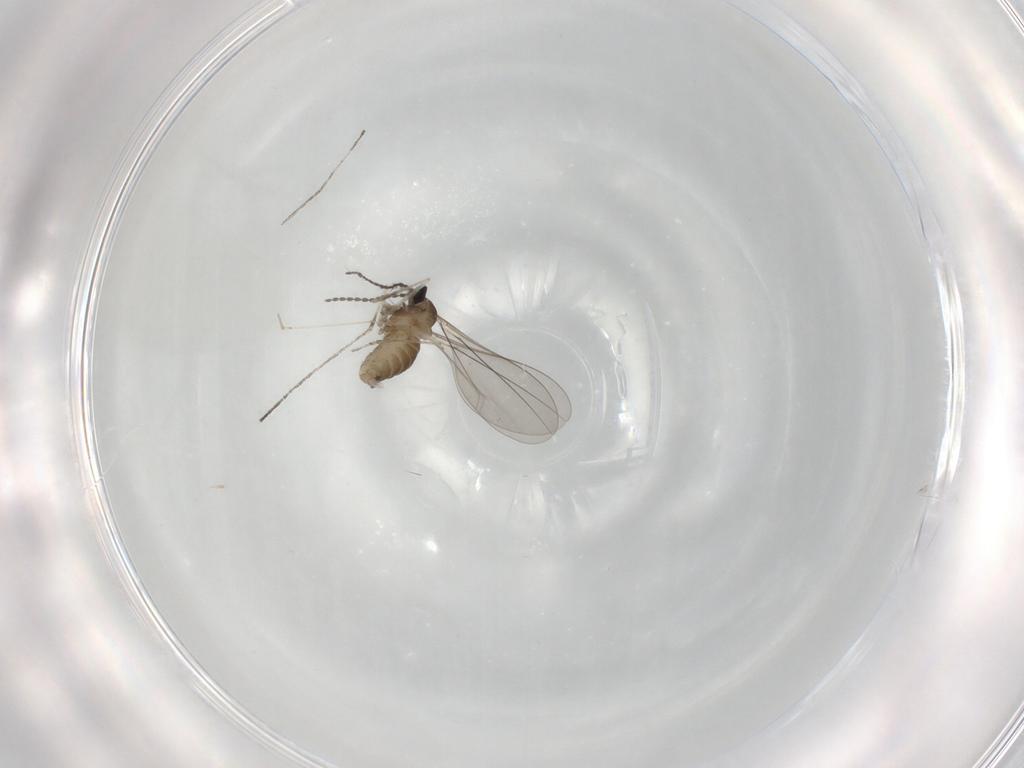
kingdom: Animalia
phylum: Arthropoda
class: Insecta
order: Diptera
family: Cecidomyiidae
